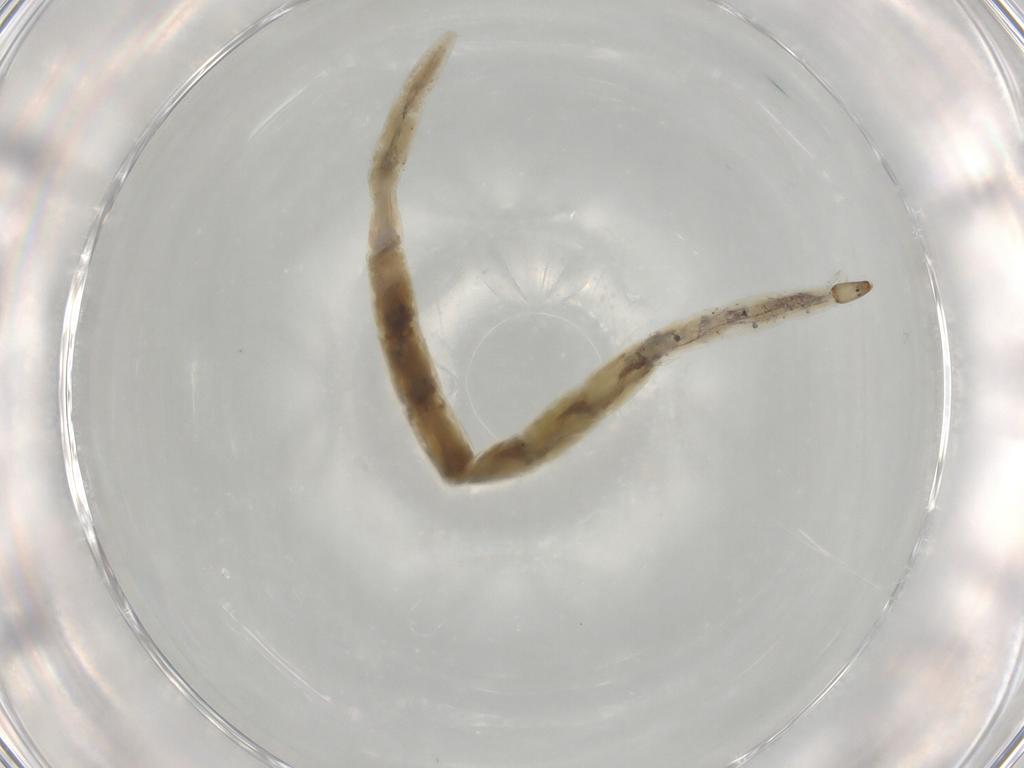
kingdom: Animalia
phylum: Arthropoda
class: Insecta
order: Diptera
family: Ceratopogonidae
